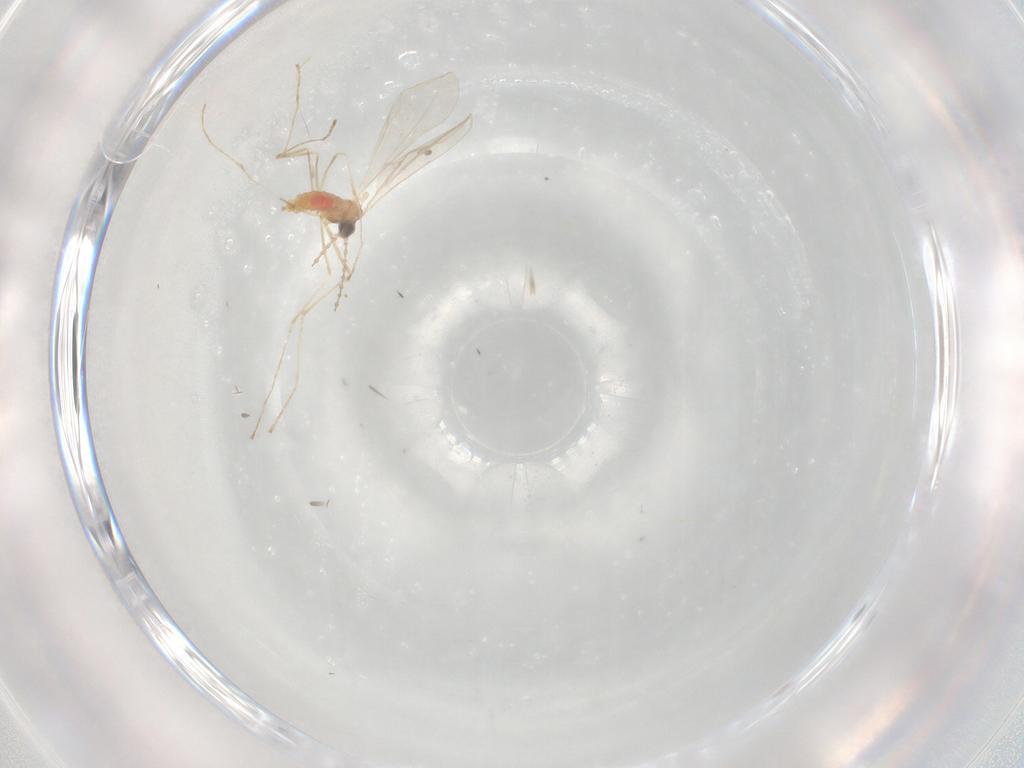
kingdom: Animalia
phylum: Arthropoda
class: Insecta
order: Diptera
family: Cecidomyiidae
